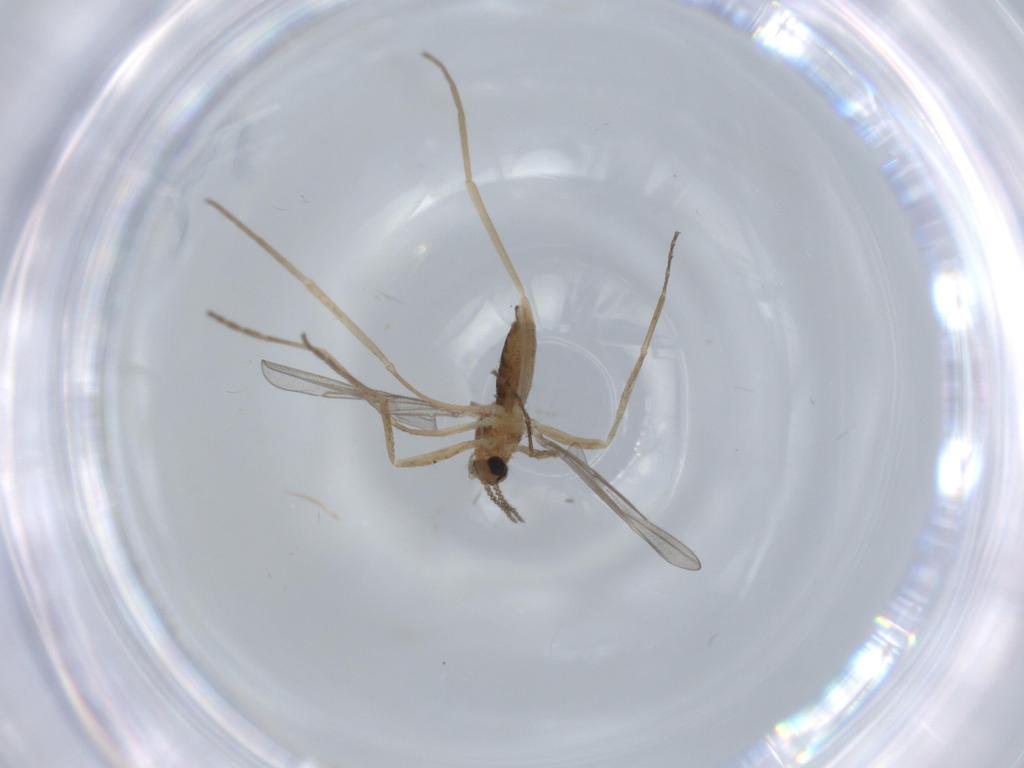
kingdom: Animalia
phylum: Arthropoda
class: Insecta
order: Diptera
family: Cecidomyiidae
